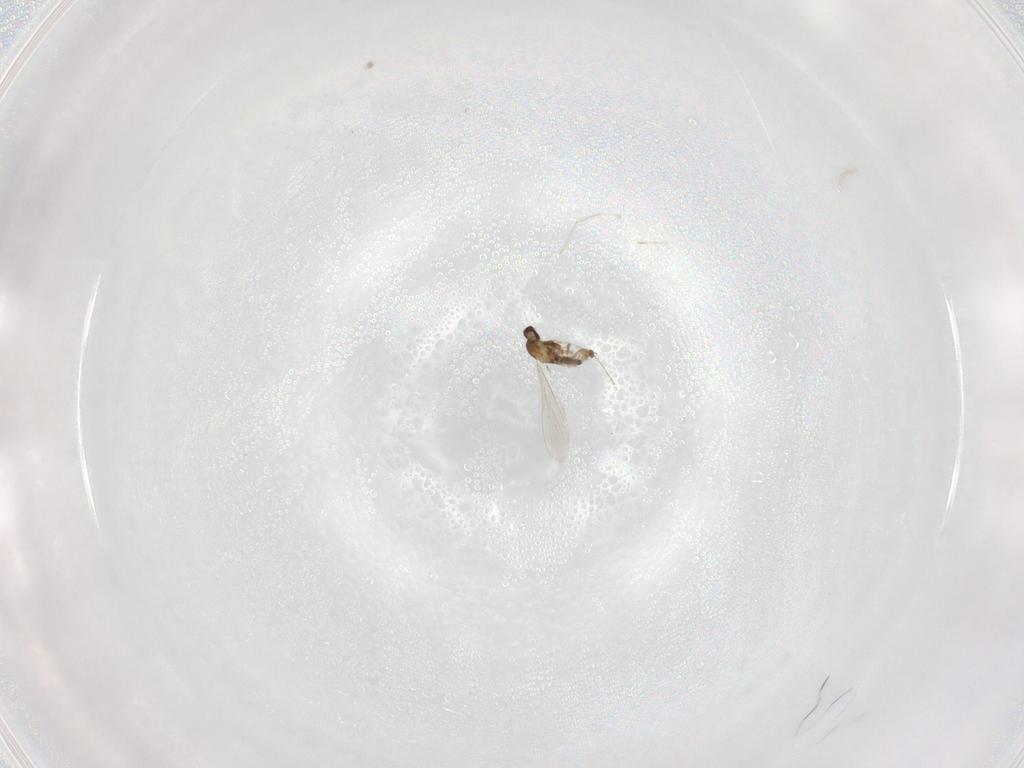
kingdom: Animalia
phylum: Arthropoda
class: Insecta
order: Diptera
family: Cecidomyiidae
